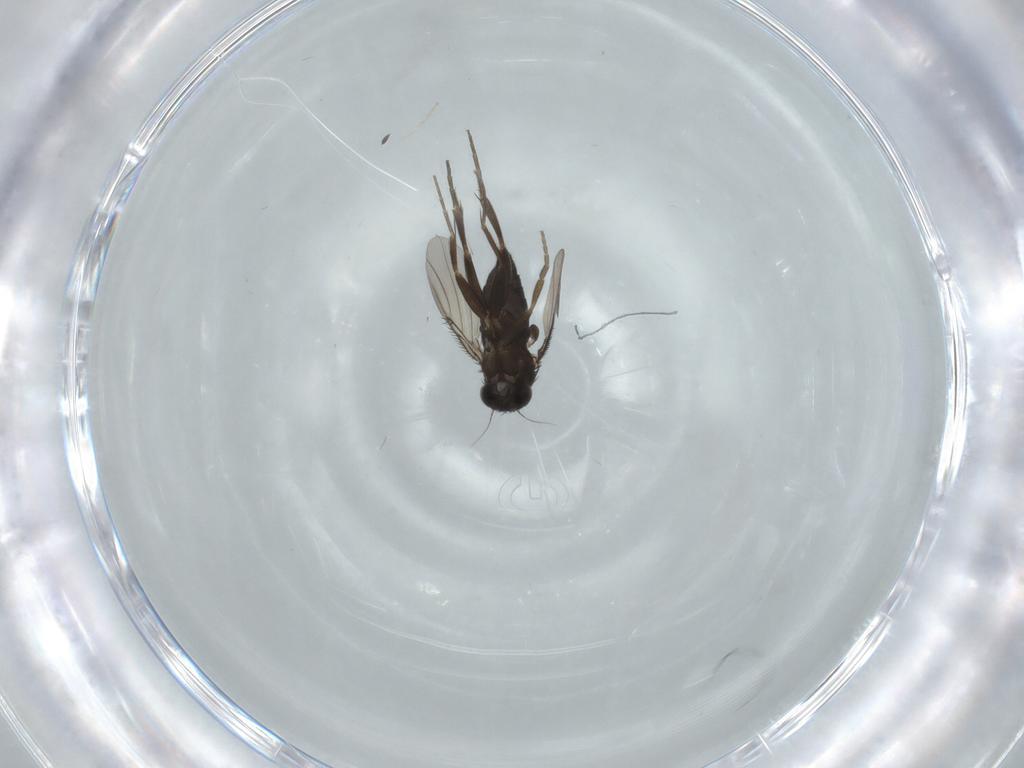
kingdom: Animalia
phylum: Arthropoda
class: Insecta
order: Diptera
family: Phoridae
